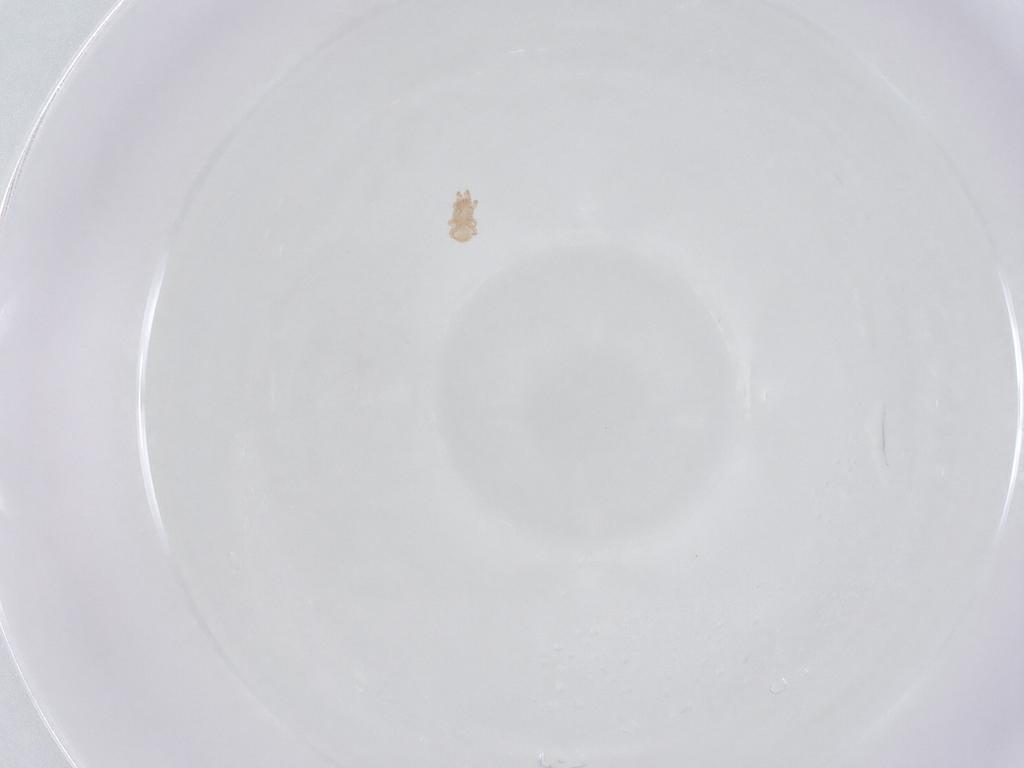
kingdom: Animalia
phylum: Arthropoda
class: Arachnida
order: Mesostigmata
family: Digamasellidae
